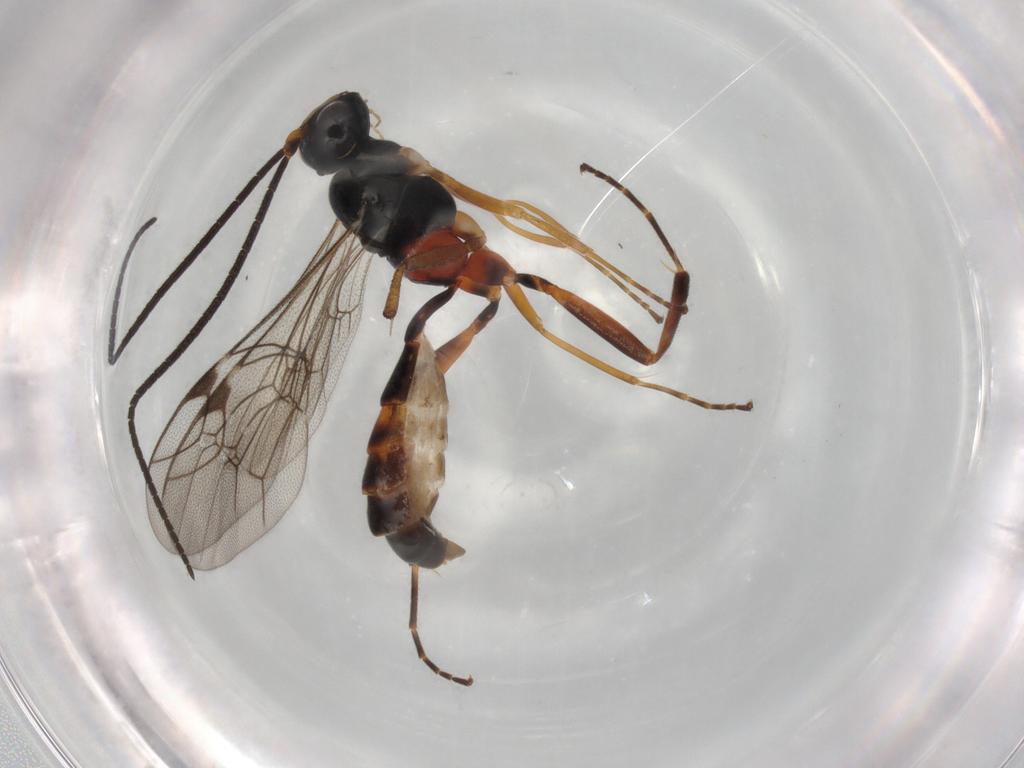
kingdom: Animalia
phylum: Arthropoda
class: Insecta
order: Hymenoptera
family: Ichneumonidae
